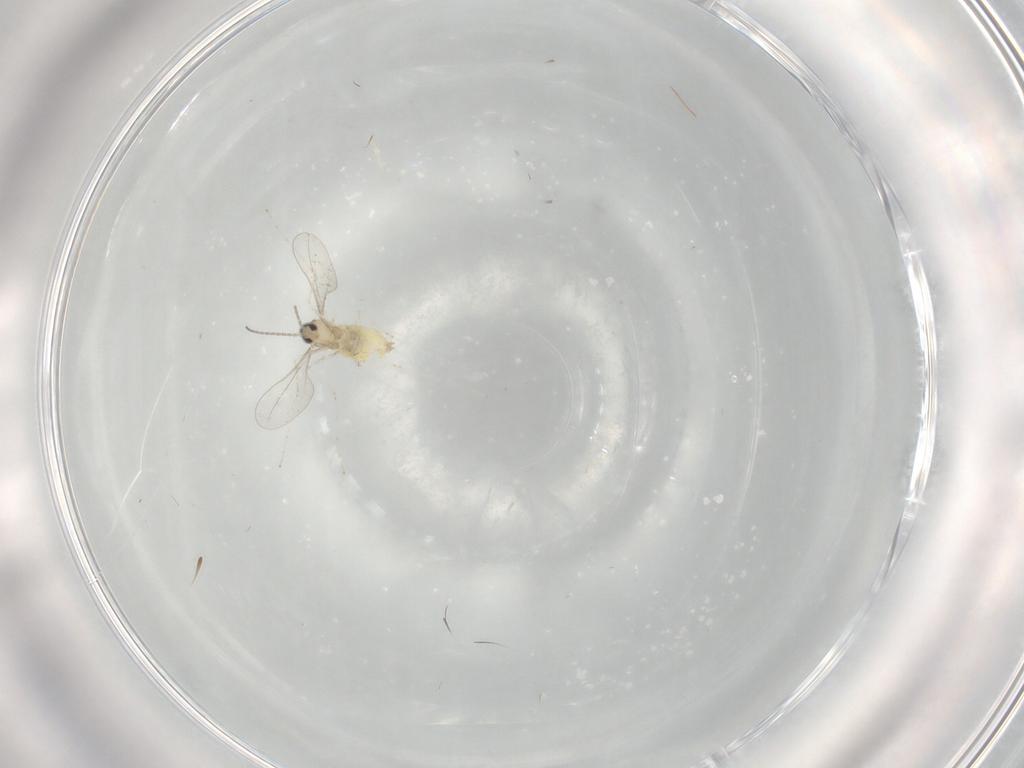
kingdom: Animalia
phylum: Arthropoda
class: Insecta
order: Diptera
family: Cecidomyiidae
